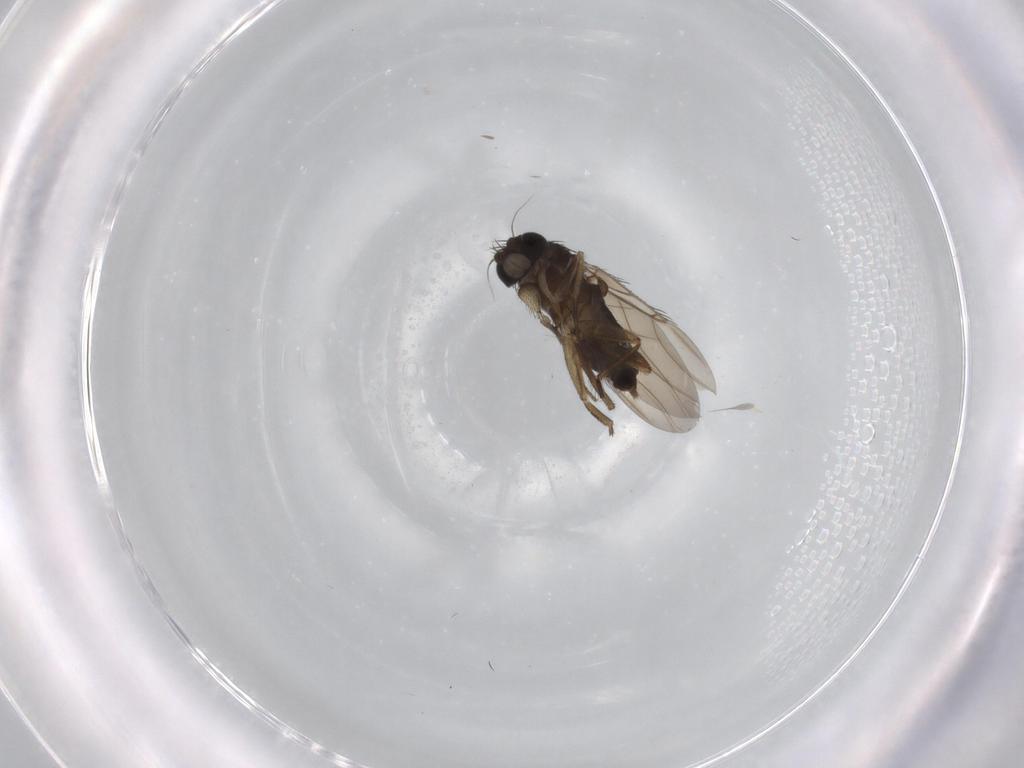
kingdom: Animalia
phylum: Arthropoda
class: Insecta
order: Diptera
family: Phoridae
